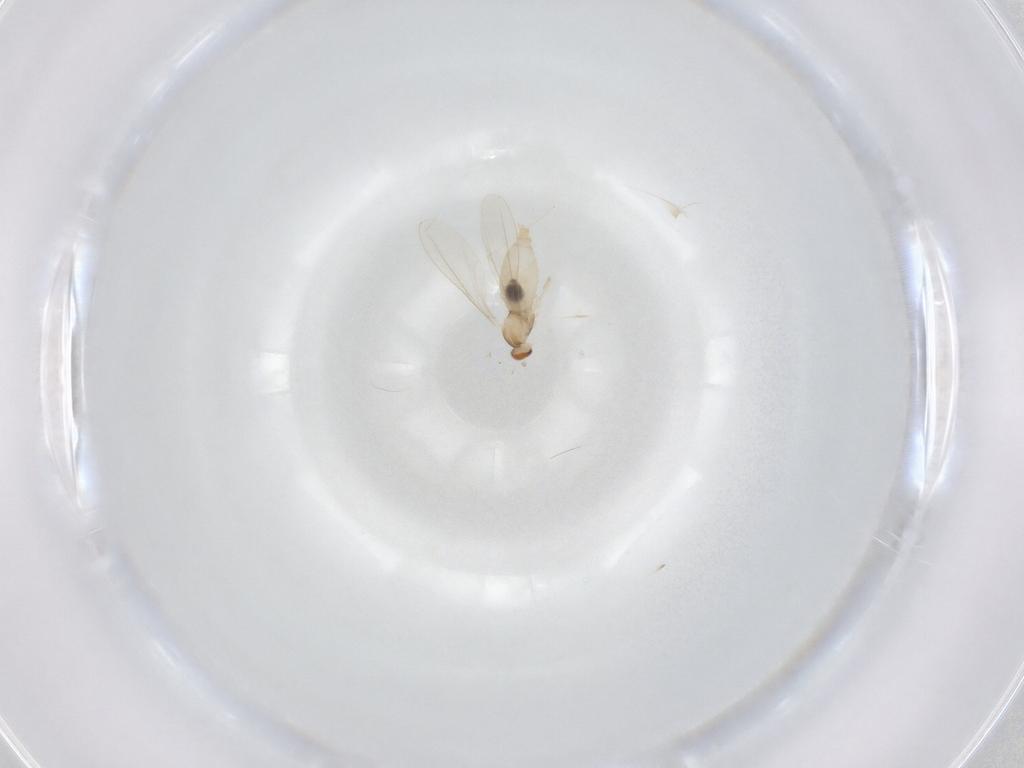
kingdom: Animalia
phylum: Arthropoda
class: Insecta
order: Diptera
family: Cecidomyiidae
